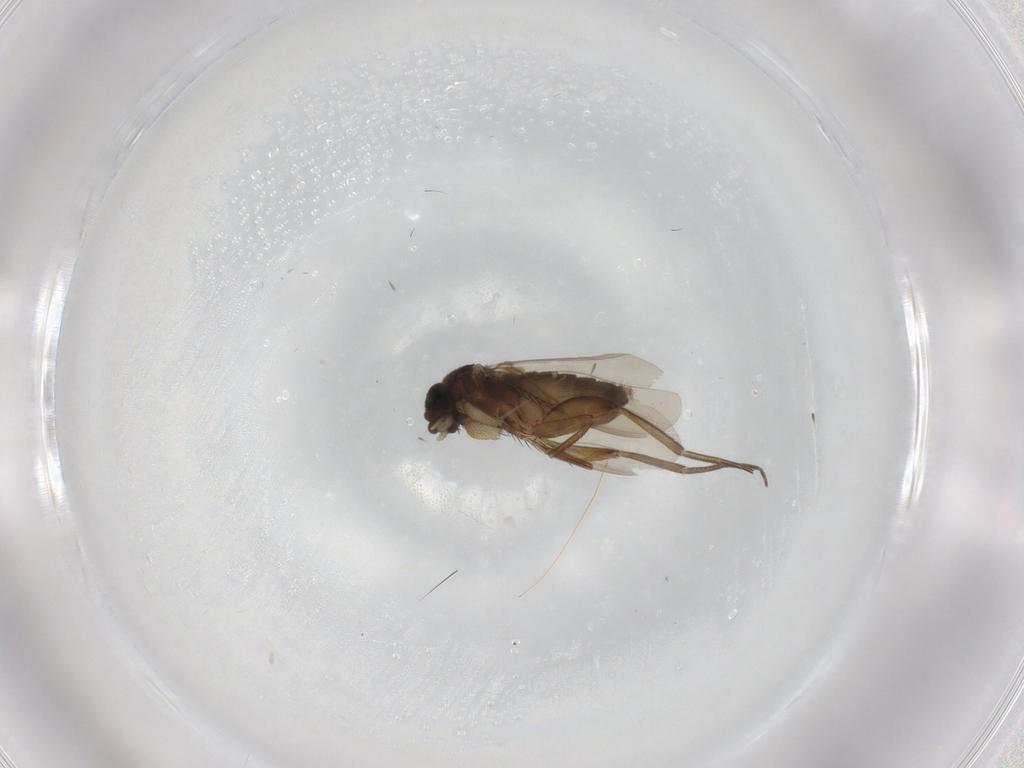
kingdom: Animalia
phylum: Arthropoda
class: Insecta
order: Diptera
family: Phoridae
